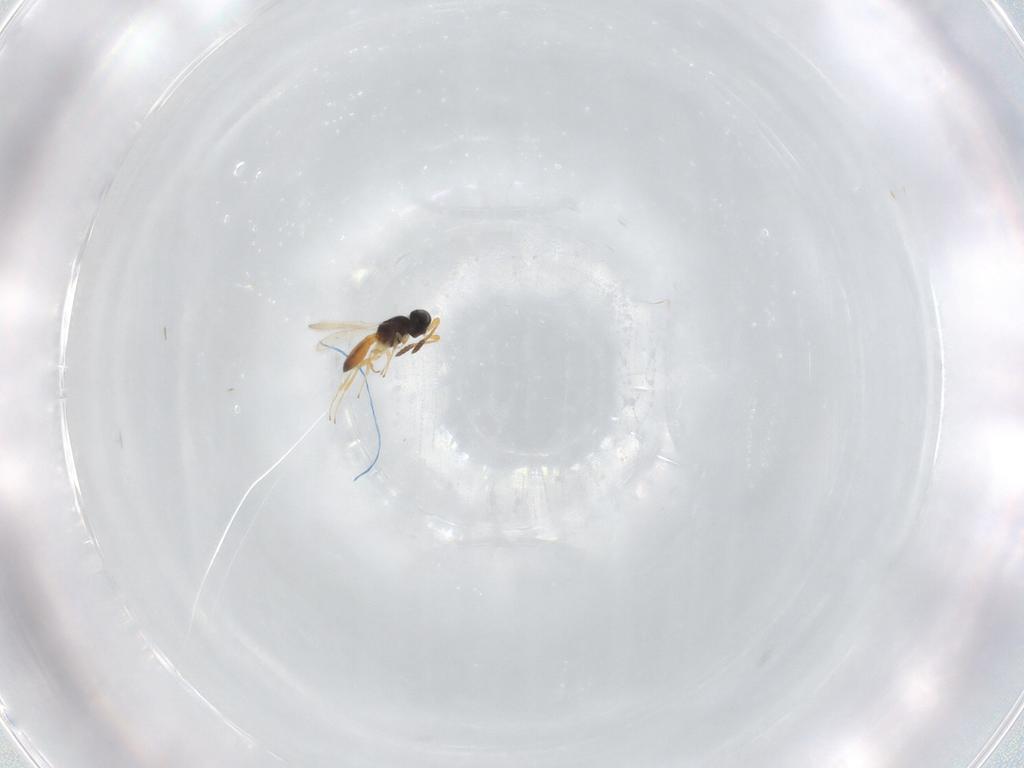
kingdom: Animalia
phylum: Arthropoda
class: Insecta
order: Hymenoptera
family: Scelionidae
